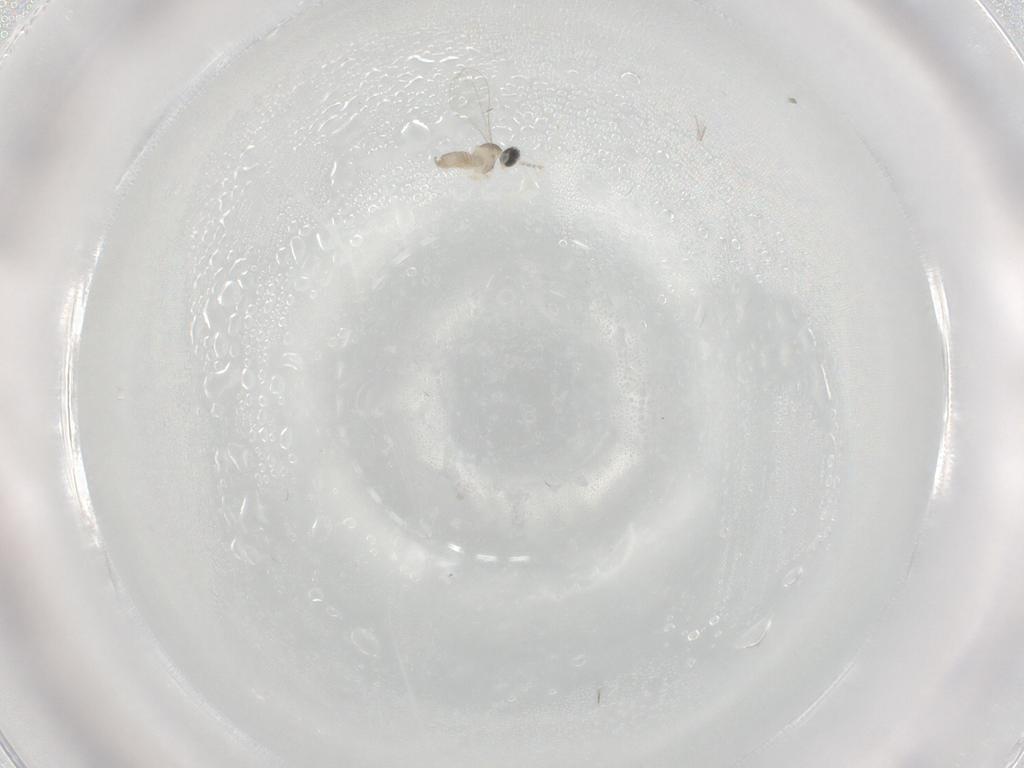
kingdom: Animalia
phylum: Arthropoda
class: Insecta
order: Diptera
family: Cecidomyiidae
